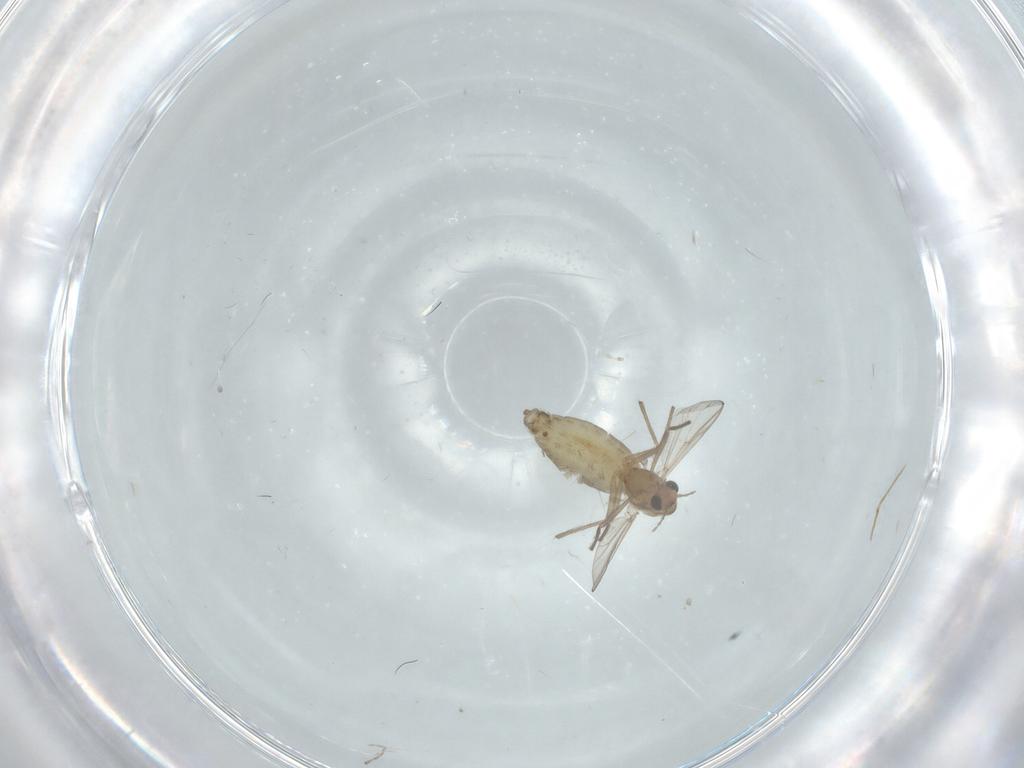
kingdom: Animalia
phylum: Arthropoda
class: Insecta
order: Diptera
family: Chironomidae
